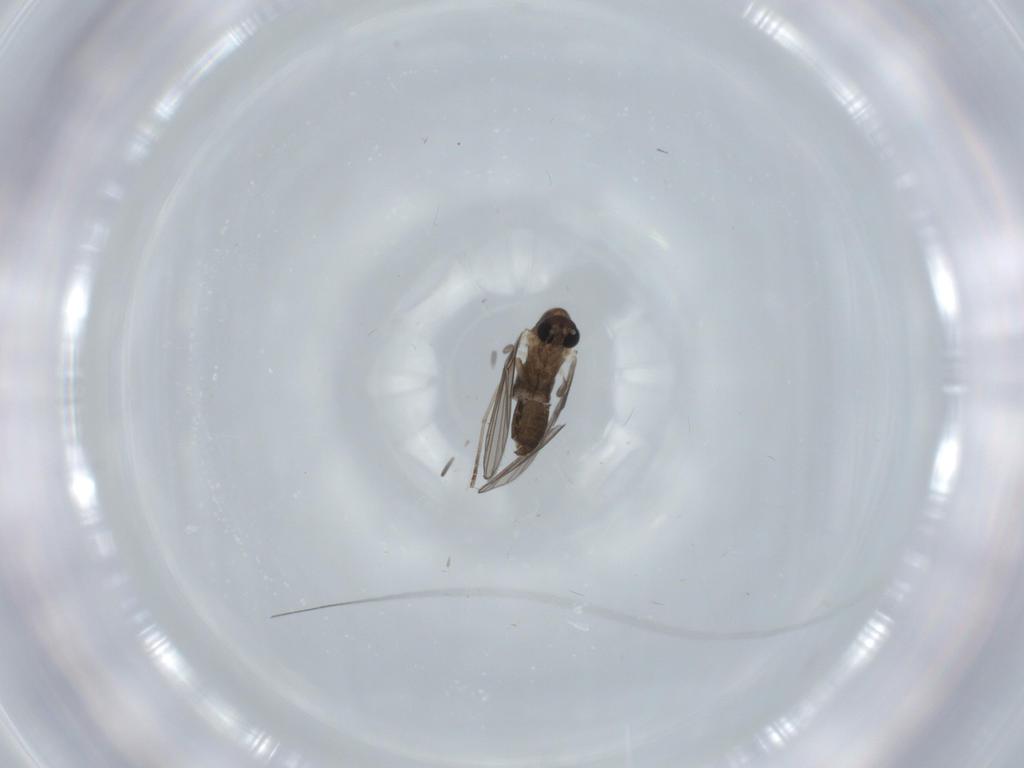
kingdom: Animalia
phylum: Arthropoda
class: Insecta
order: Diptera
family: Psychodidae
